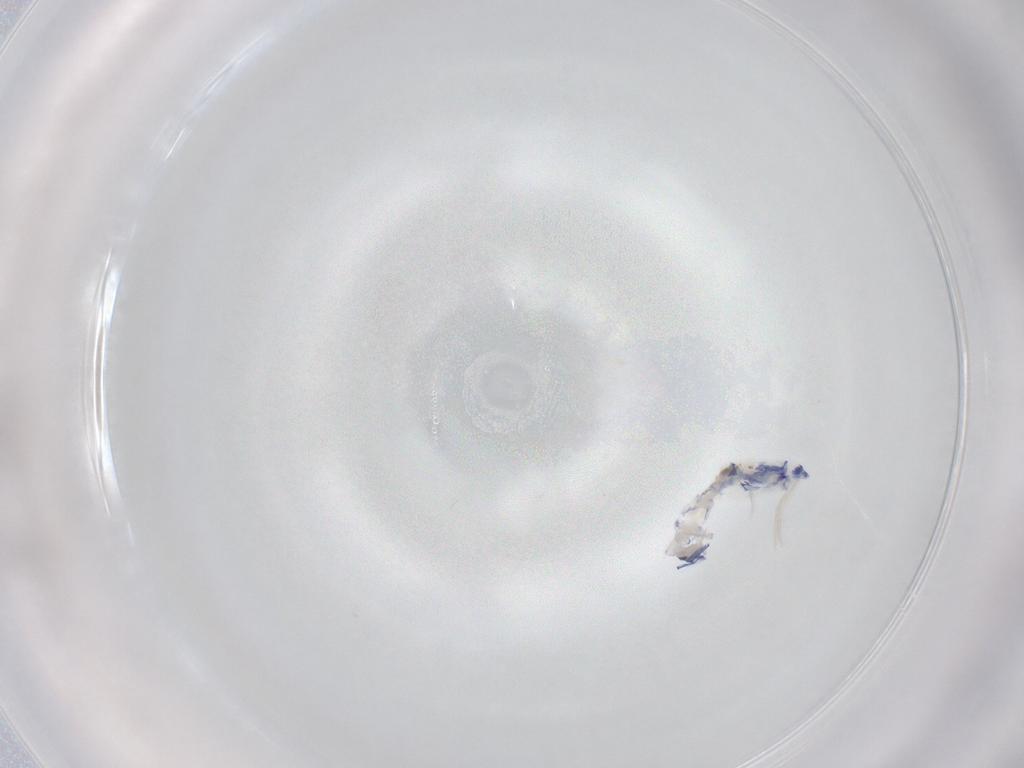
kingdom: Animalia
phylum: Arthropoda
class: Collembola
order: Entomobryomorpha
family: Entomobryidae
